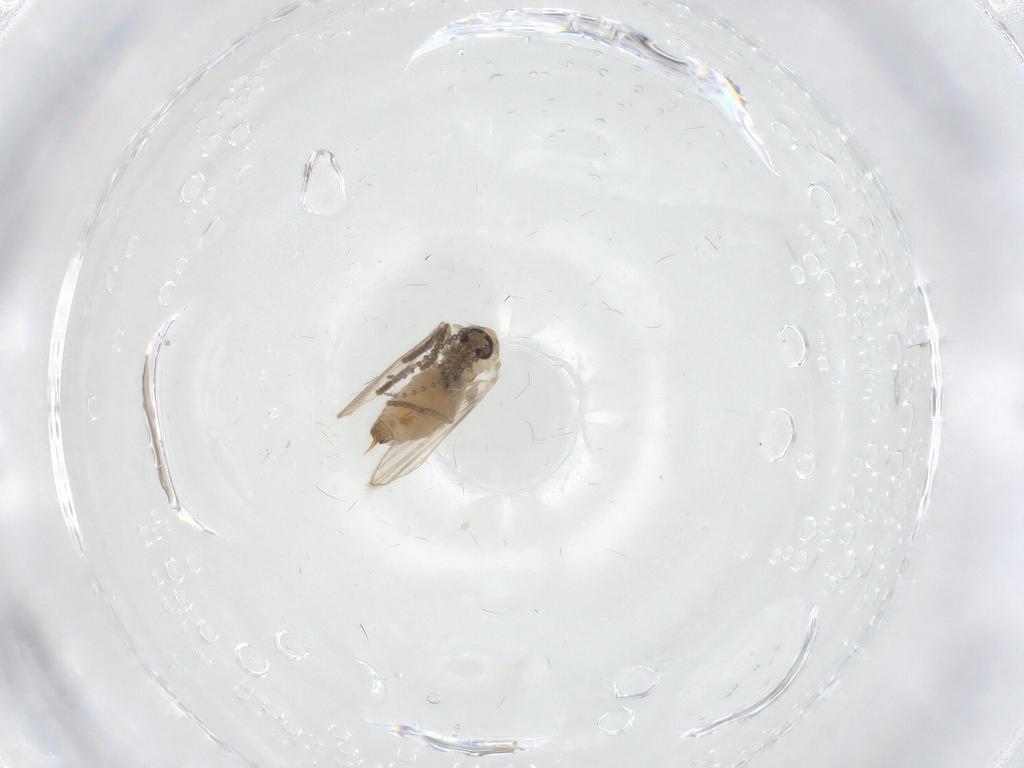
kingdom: Animalia
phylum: Arthropoda
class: Insecta
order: Diptera
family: Psychodidae
